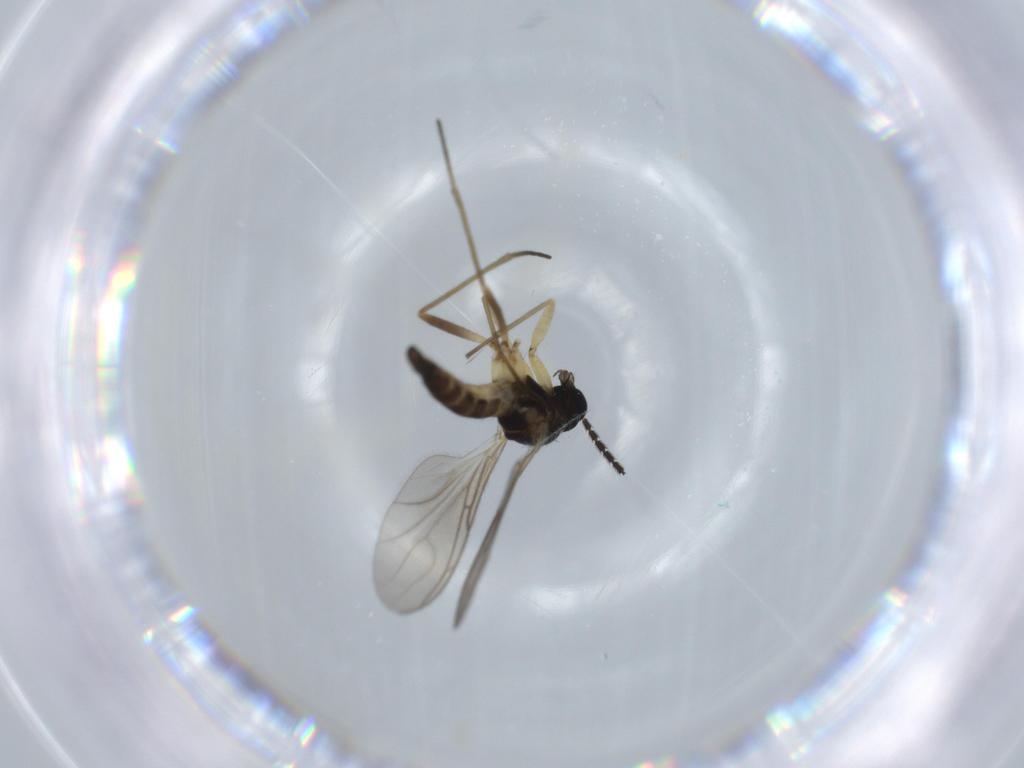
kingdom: Animalia
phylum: Arthropoda
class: Insecta
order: Diptera
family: Sciaridae
